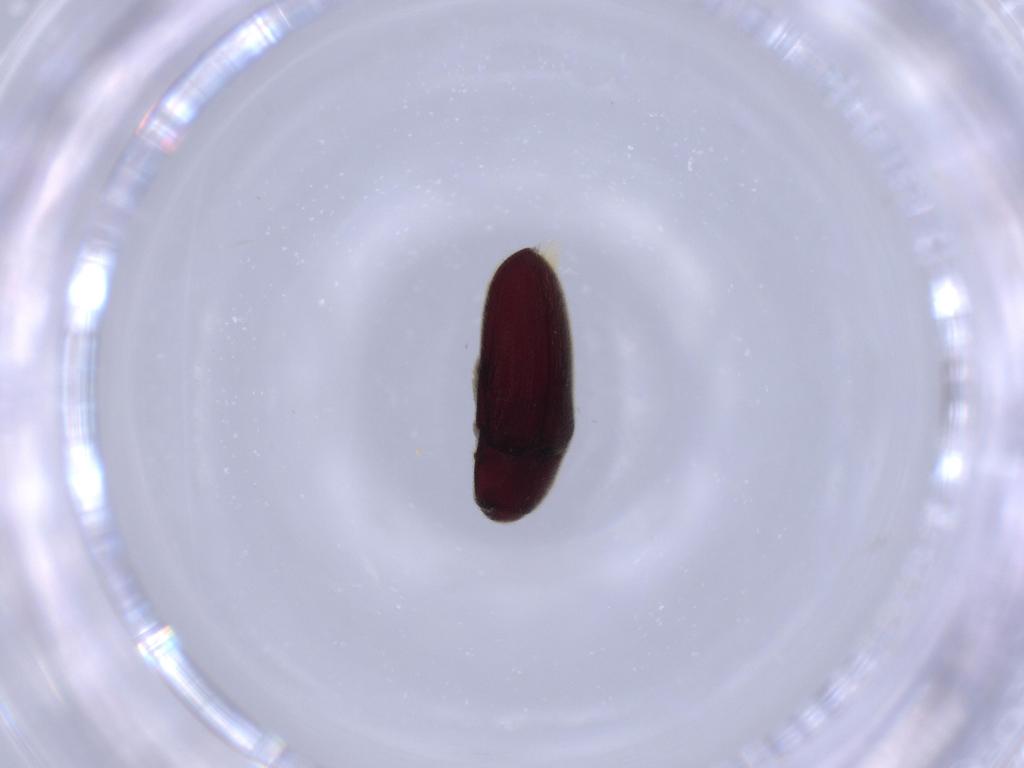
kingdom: Animalia
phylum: Arthropoda
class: Insecta
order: Coleoptera
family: Throscidae
